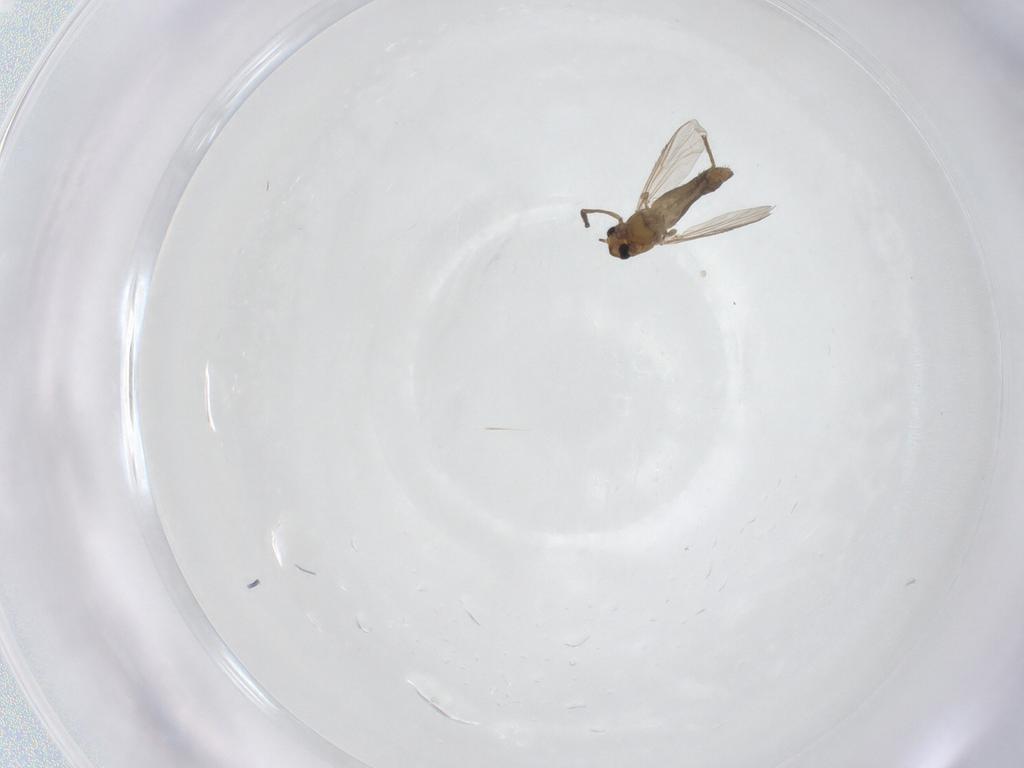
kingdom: Animalia
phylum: Arthropoda
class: Insecta
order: Diptera
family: Chironomidae
